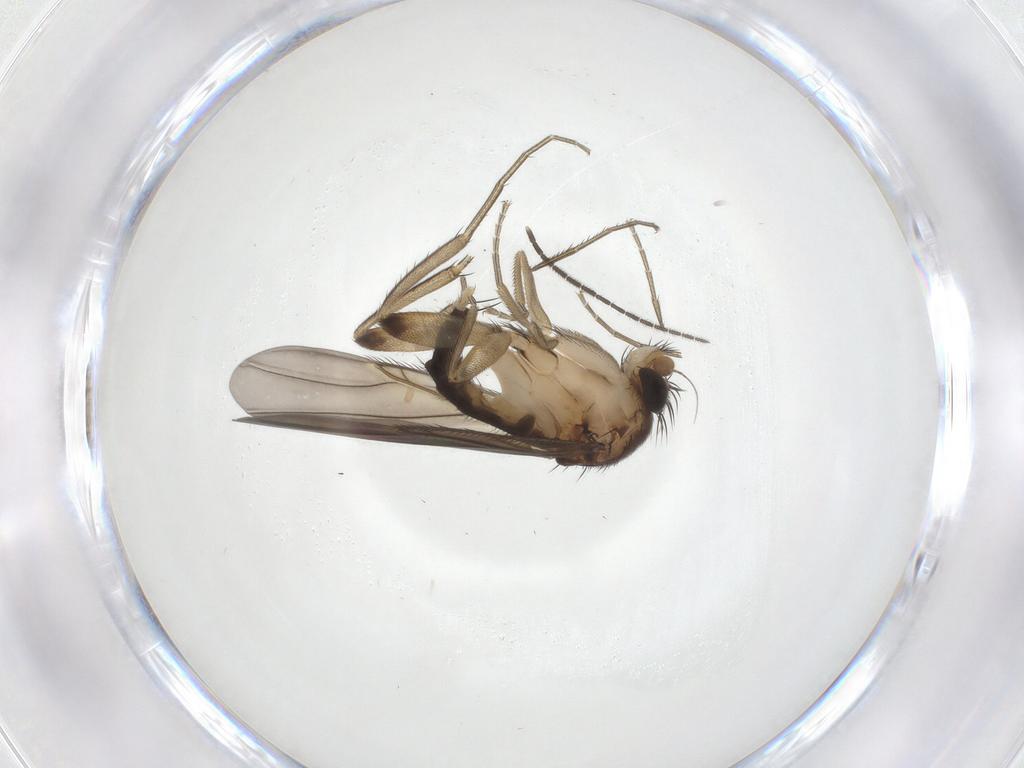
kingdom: Animalia
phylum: Arthropoda
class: Insecta
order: Diptera
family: Phoridae
